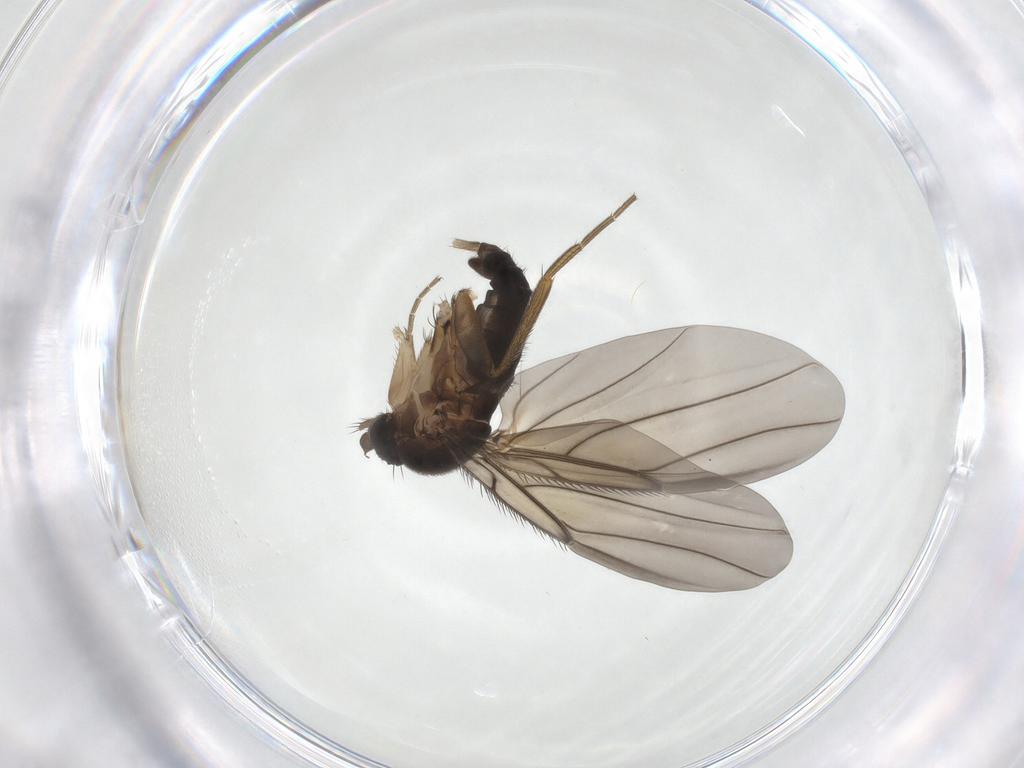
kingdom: Animalia
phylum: Arthropoda
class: Insecta
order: Diptera
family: Phoridae
